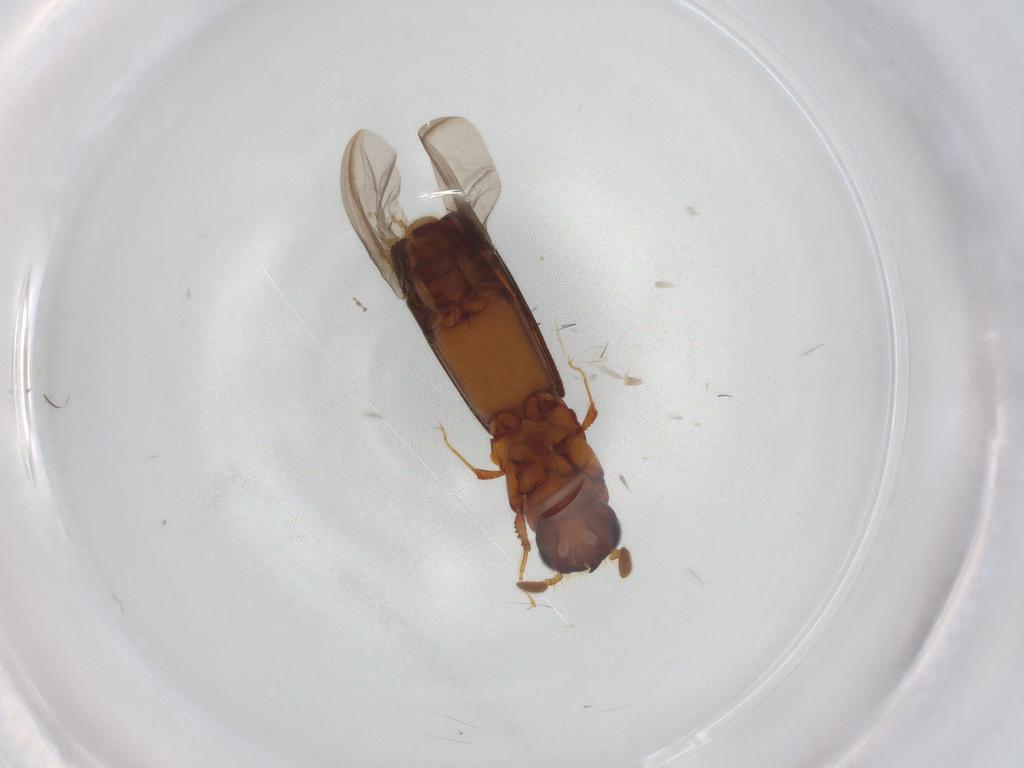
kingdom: Animalia
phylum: Arthropoda
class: Insecta
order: Coleoptera
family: Curculionidae
